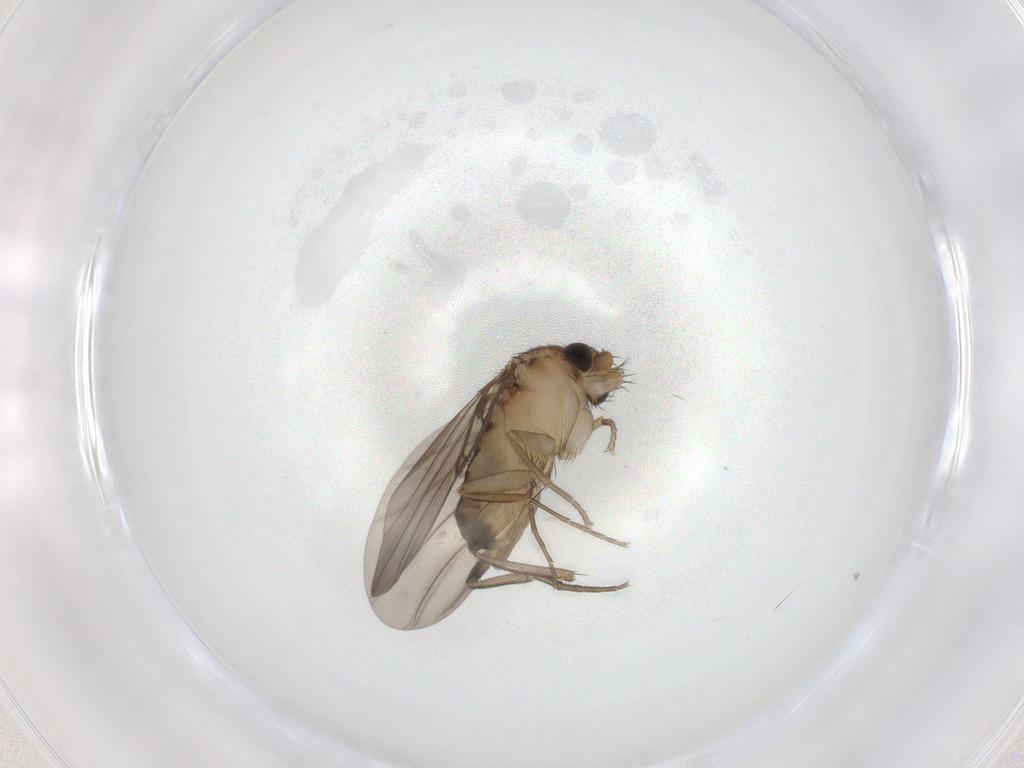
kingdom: Animalia
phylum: Arthropoda
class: Insecta
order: Diptera
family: Phoridae
